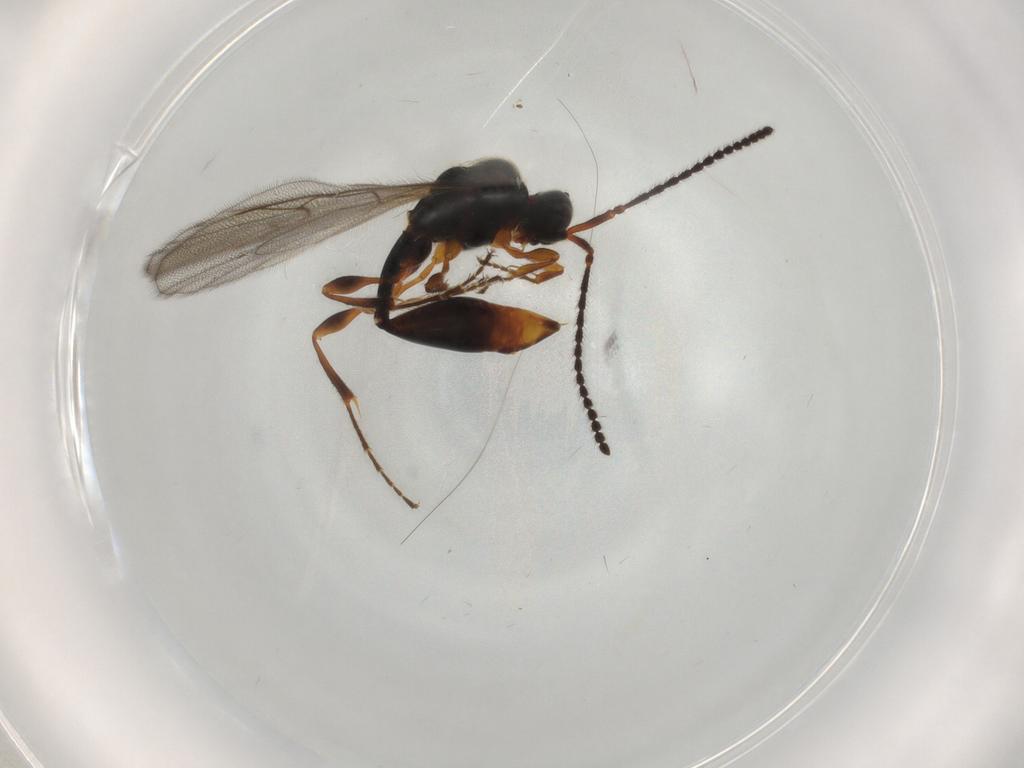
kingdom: Animalia
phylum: Arthropoda
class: Insecta
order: Hymenoptera
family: Diapriidae
